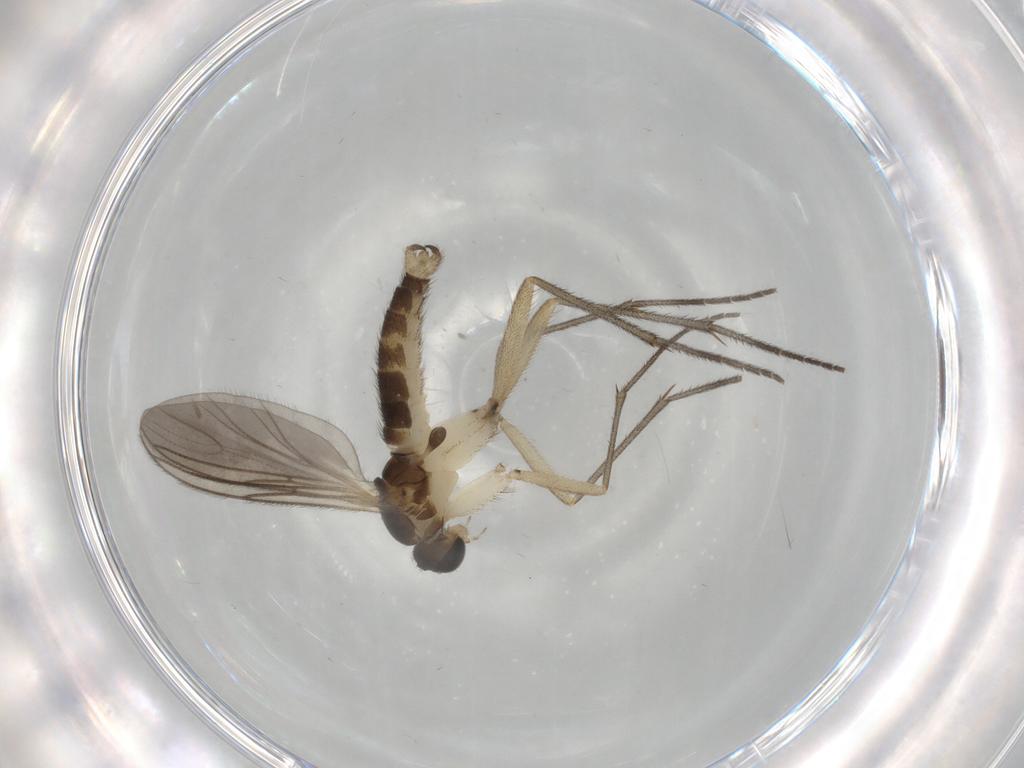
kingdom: Animalia
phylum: Arthropoda
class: Insecta
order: Diptera
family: Sciaridae
